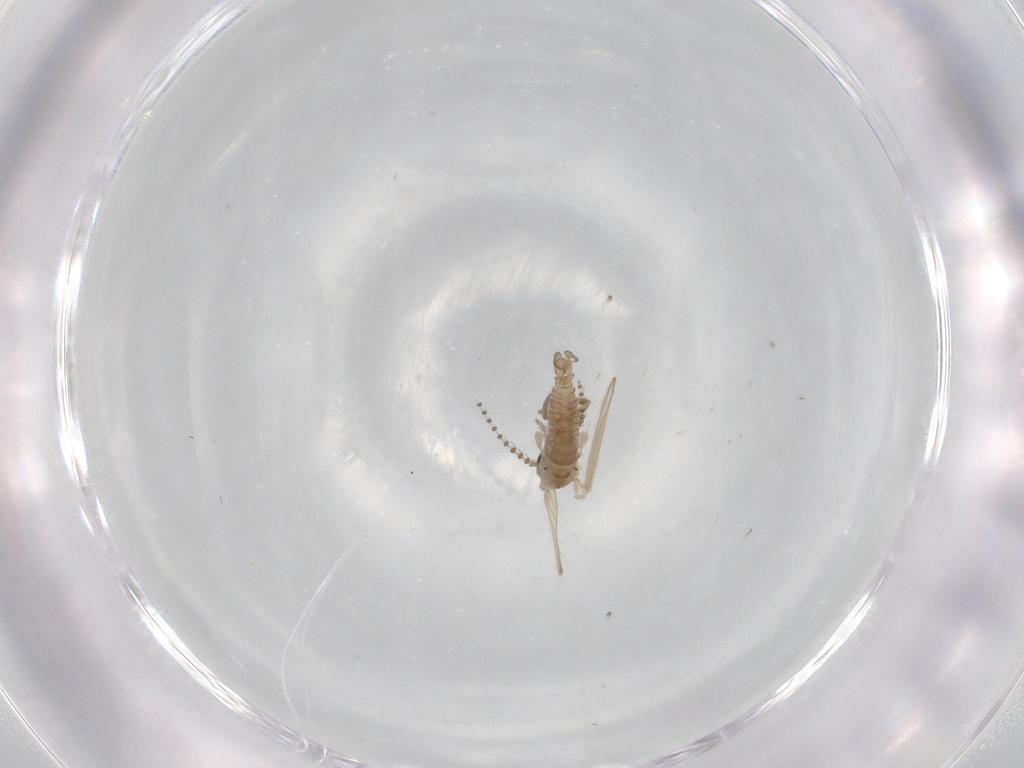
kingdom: Animalia
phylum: Arthropoda
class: Insecta
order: Diptera
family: Psychodidae
